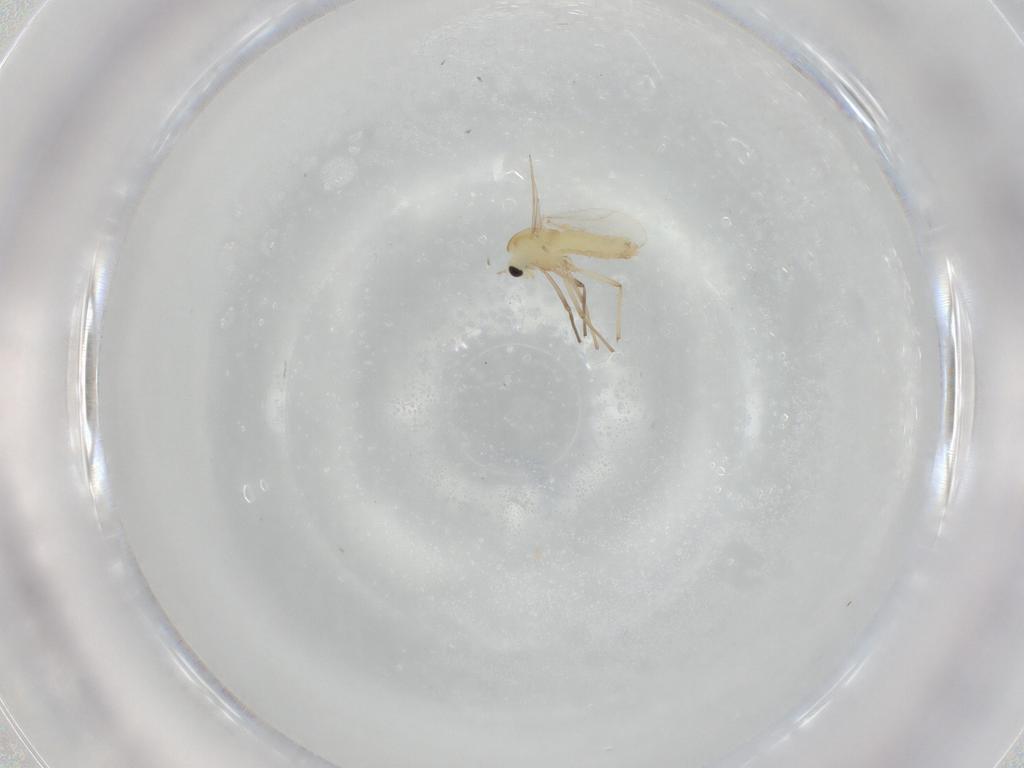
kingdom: Animalia
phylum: Arthropoda
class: Insecta
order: Diptera
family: Chironomidae
